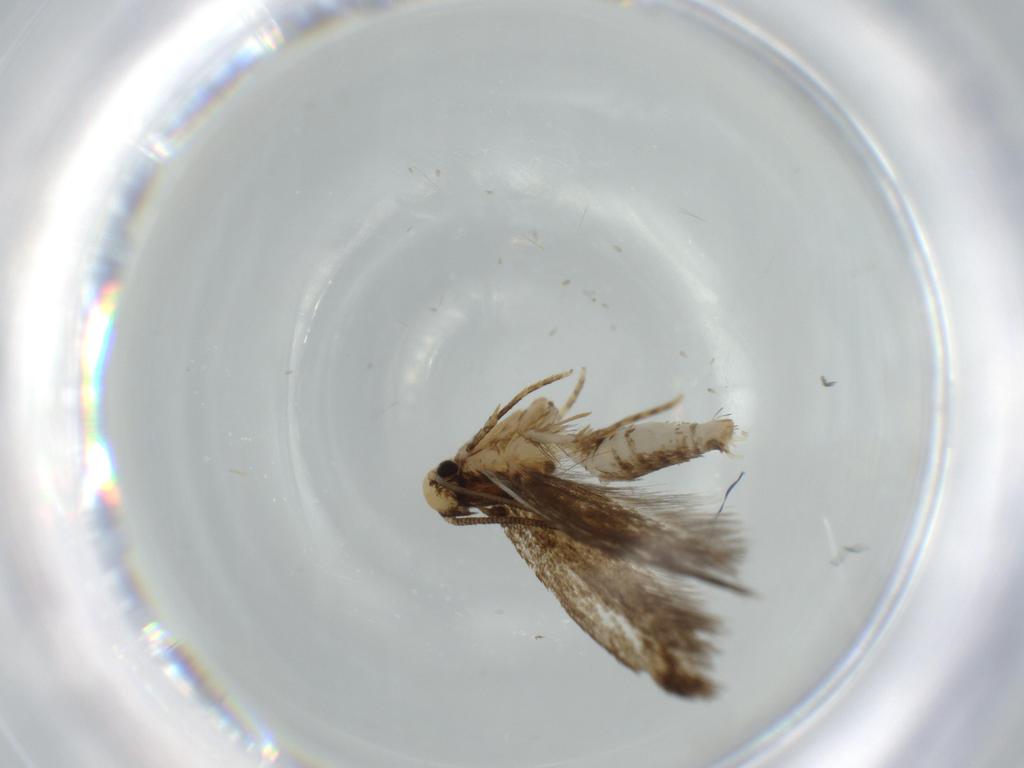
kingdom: Animalia
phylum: Arthropoda
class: Insecta
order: Lepidoptera
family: Tineidae
